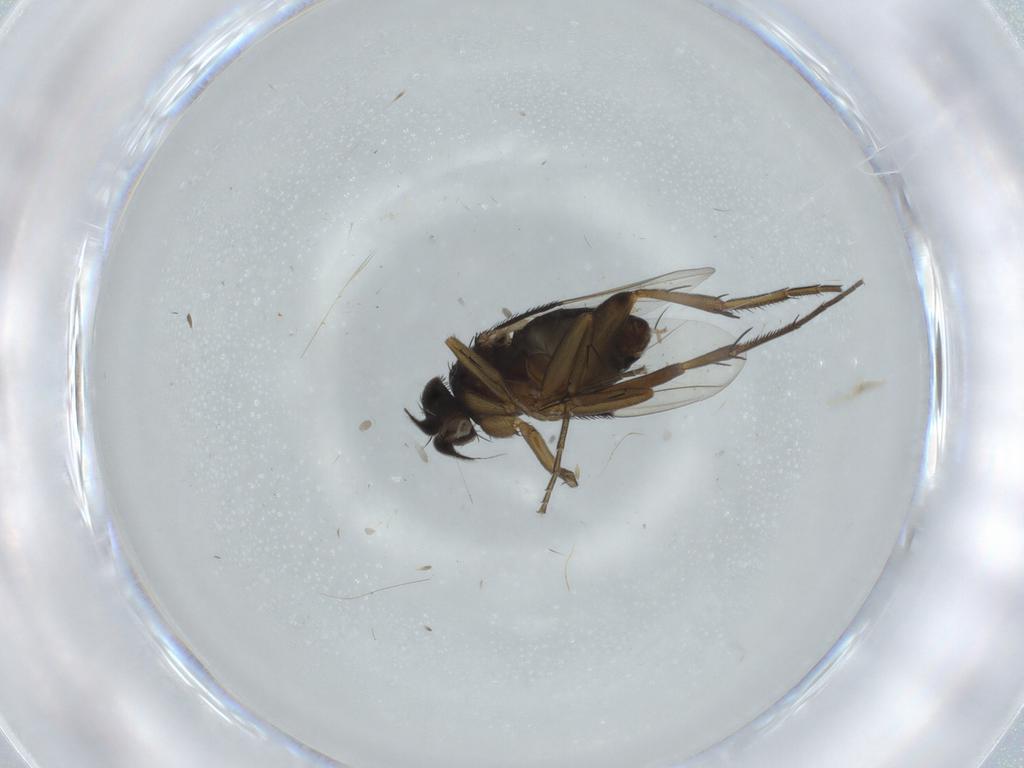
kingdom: Animalia
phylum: Arthropoda
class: Insecta
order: Diptera
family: Phoridae
